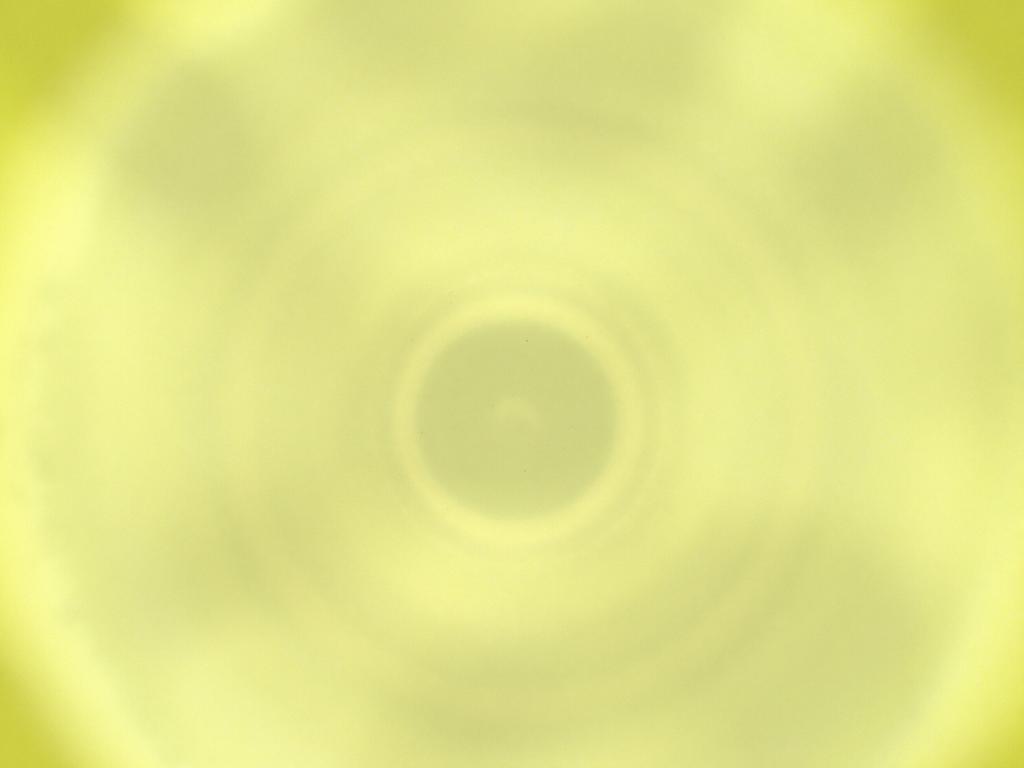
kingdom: Animalia
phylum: Arthropoda
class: Insecta
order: Diptera
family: Cecidomyiidae
